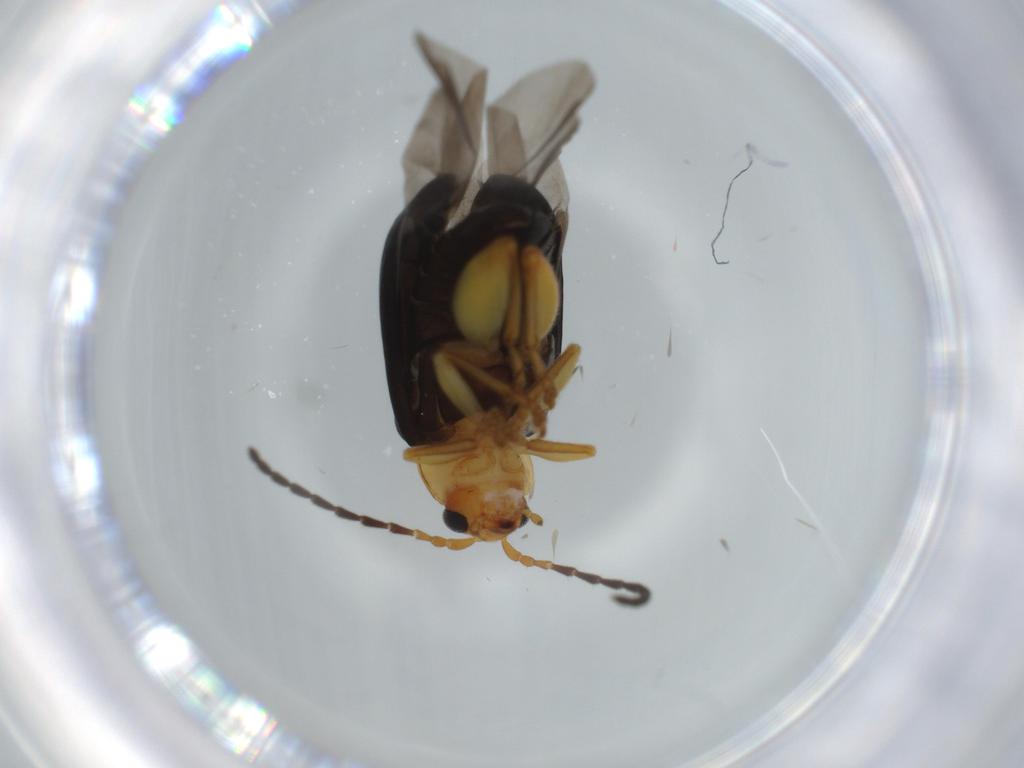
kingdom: Animalia
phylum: Arthropoda
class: Insecta
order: Coleoptera
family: Chrysomelidae
